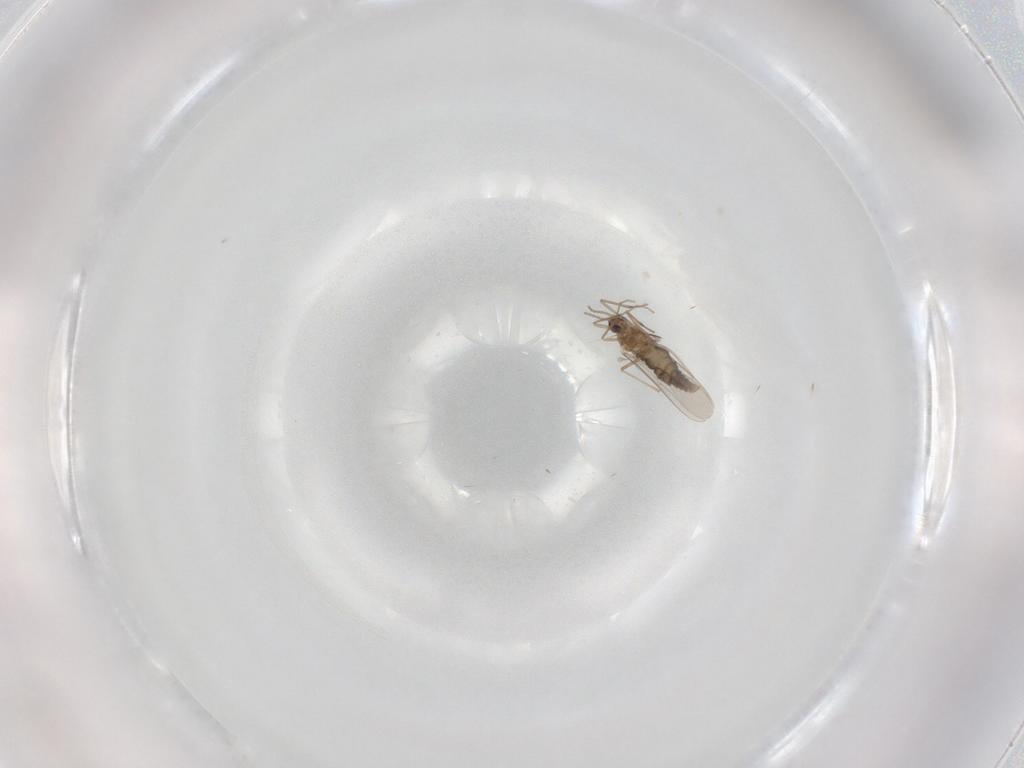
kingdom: Animalia
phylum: Arthropoda
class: Insecta
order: Diptera
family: Cecidomyiidae
